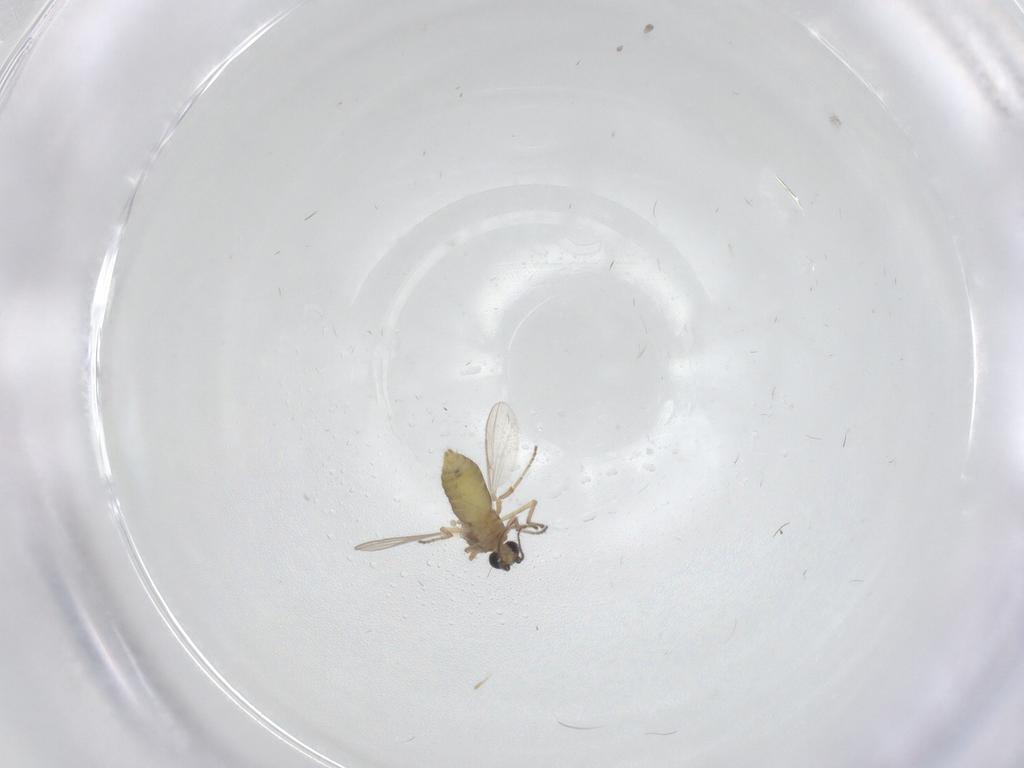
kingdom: Animalia
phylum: Arthropoda
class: Insecta
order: Diptera
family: Ceratopogonidae
